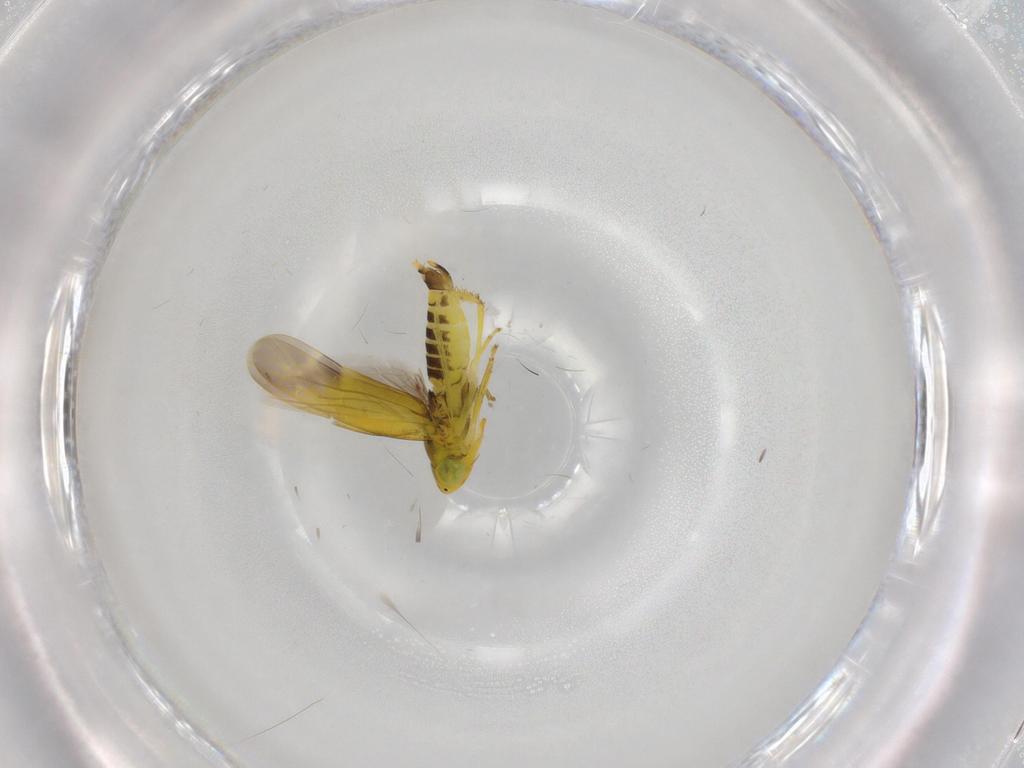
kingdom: Animalia
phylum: Arthropoda
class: Insecta
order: Hemiptera
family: Cicadellidae
